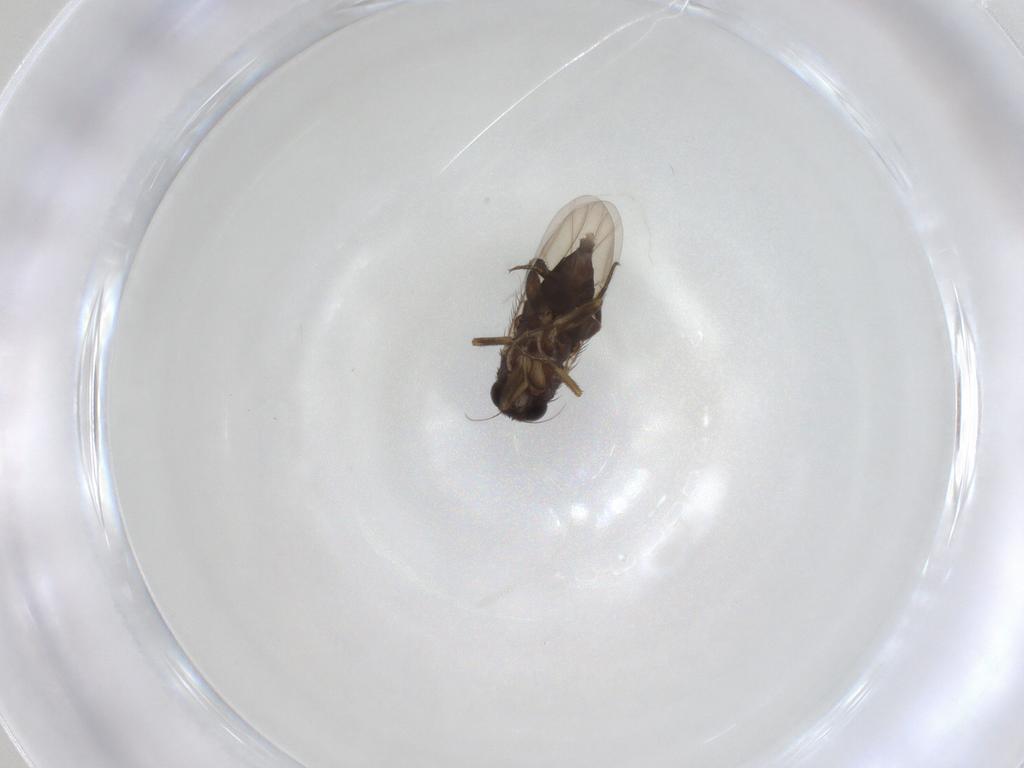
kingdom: Animalia
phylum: Arthropoda
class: Insecta
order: Diptera
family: Phoridae
